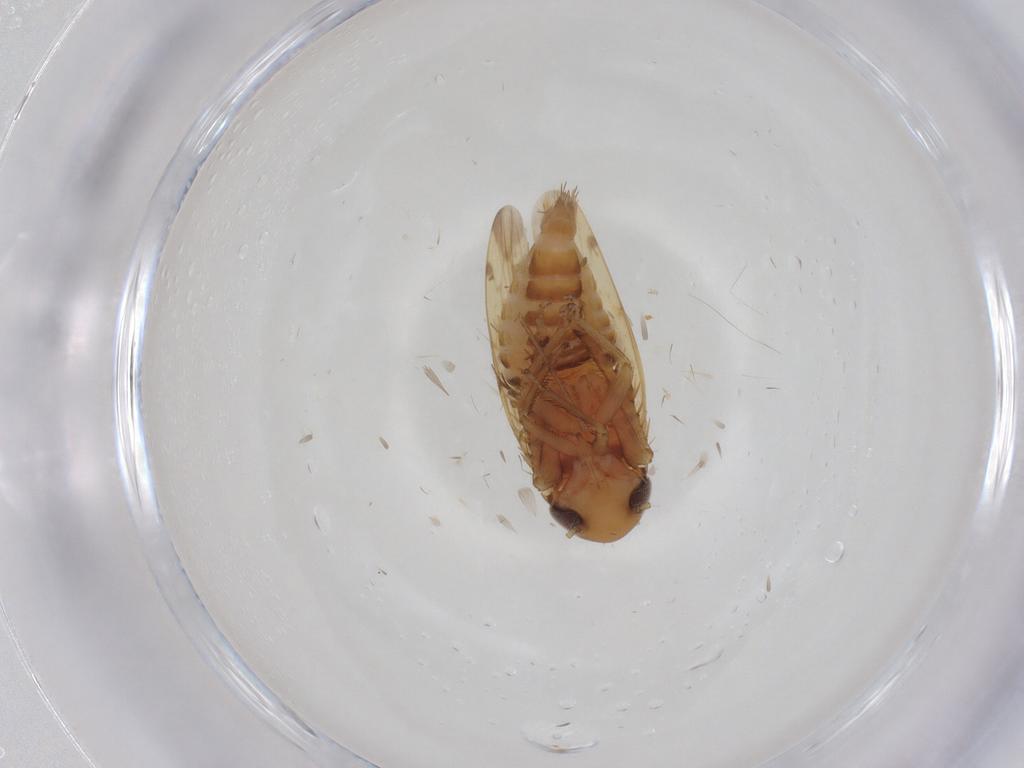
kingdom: Animalia
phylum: Arthropoda
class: Insecta
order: Hemiptera
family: Cicadellidae
